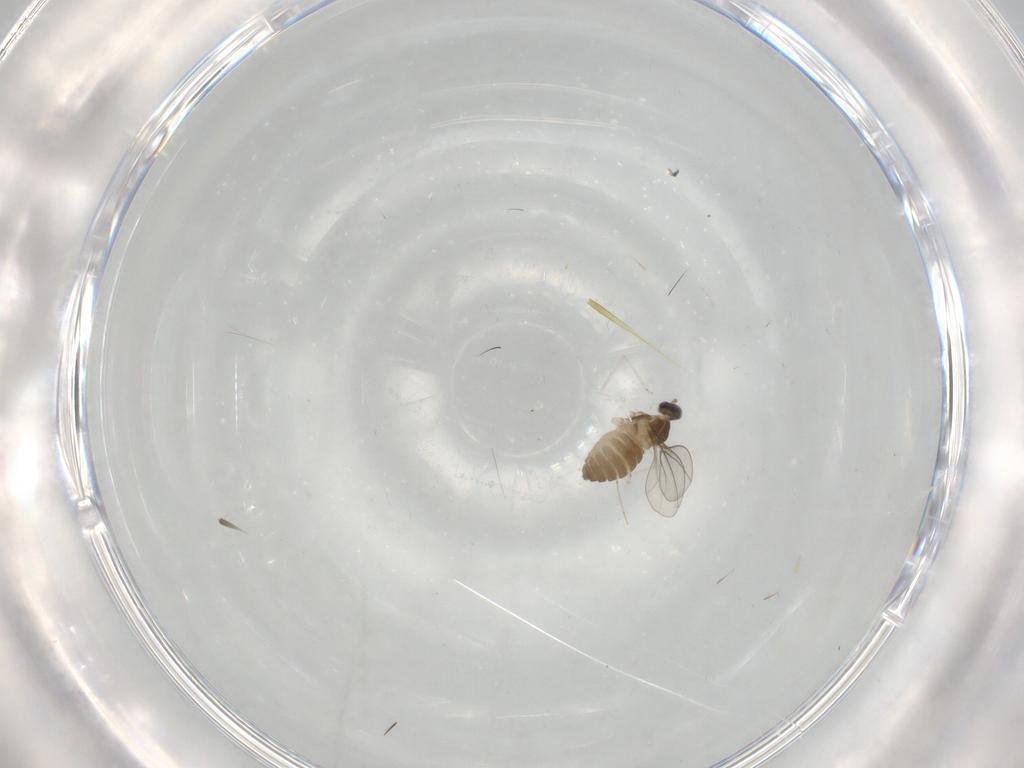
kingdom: Animalia
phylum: Arthropoda
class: Insecta
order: Diptera
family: Cecidomyiidae
